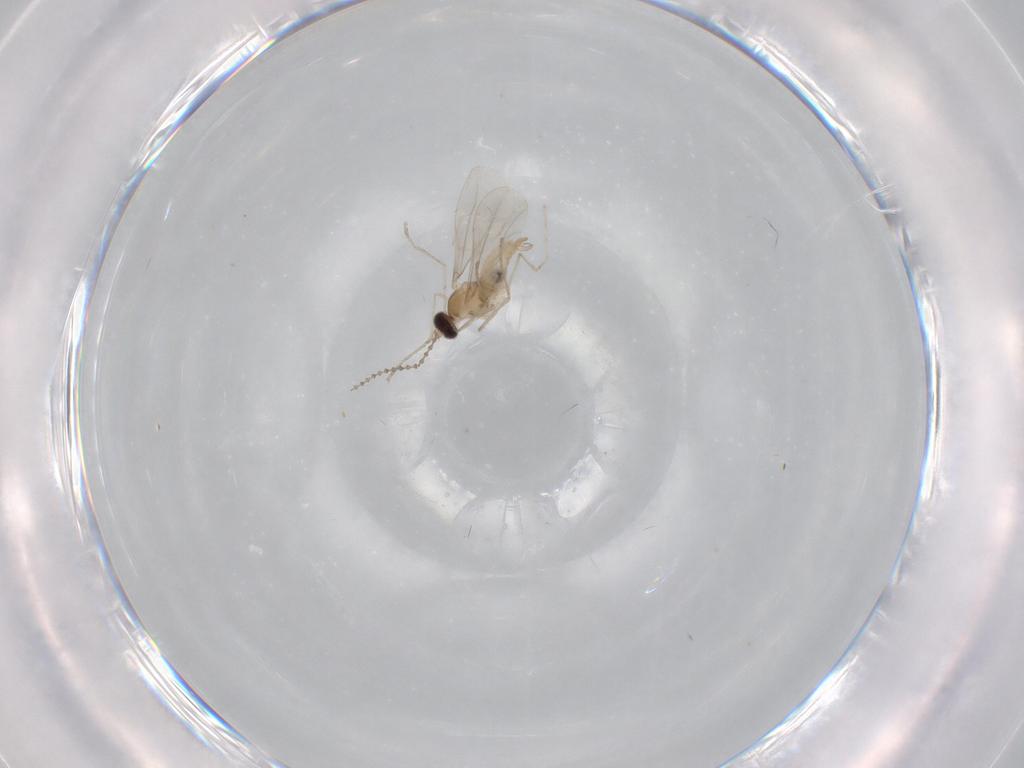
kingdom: Animalia
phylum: Arthropoda
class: Insecta
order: Diptera
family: Cecidomyiidae
